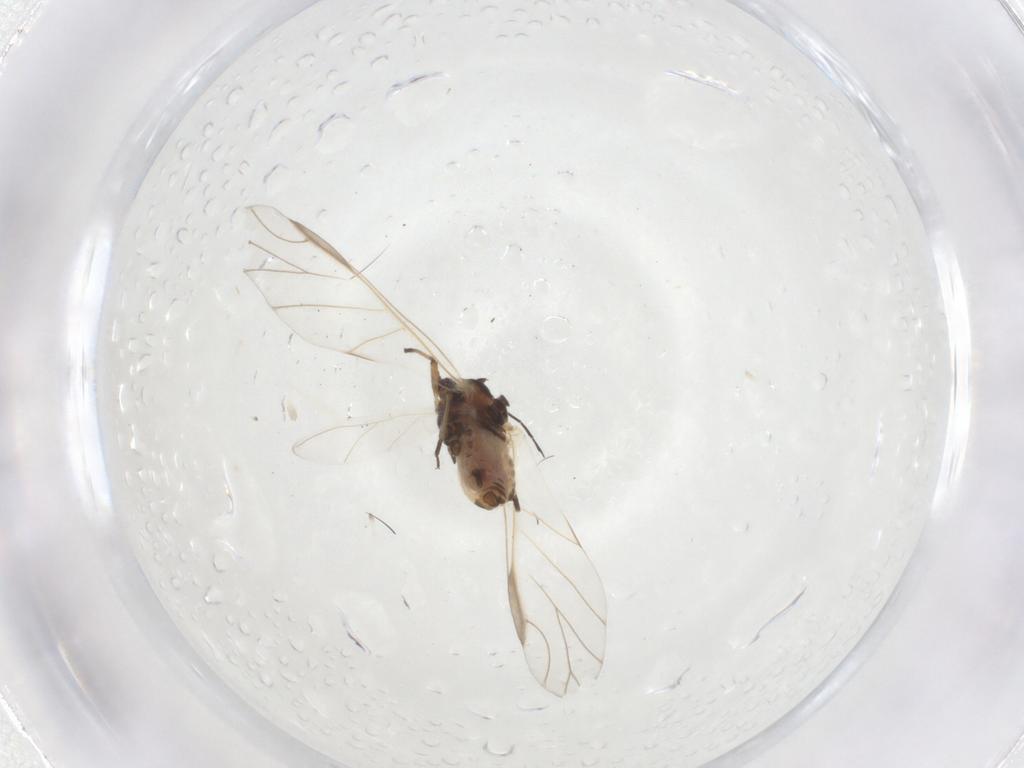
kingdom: Animalia
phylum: Arthropoda
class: Insecta
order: Hemiptera
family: Aphididae
